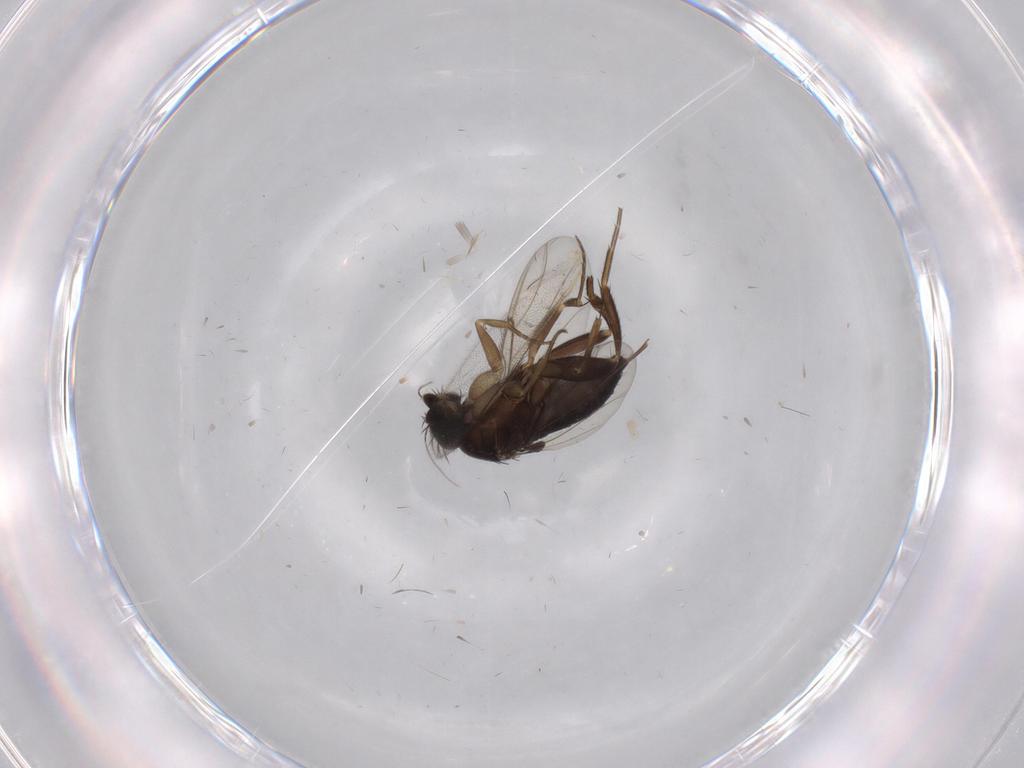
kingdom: Animalia
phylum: Arthropoda
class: Insecta
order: Diptera
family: Phoridae
